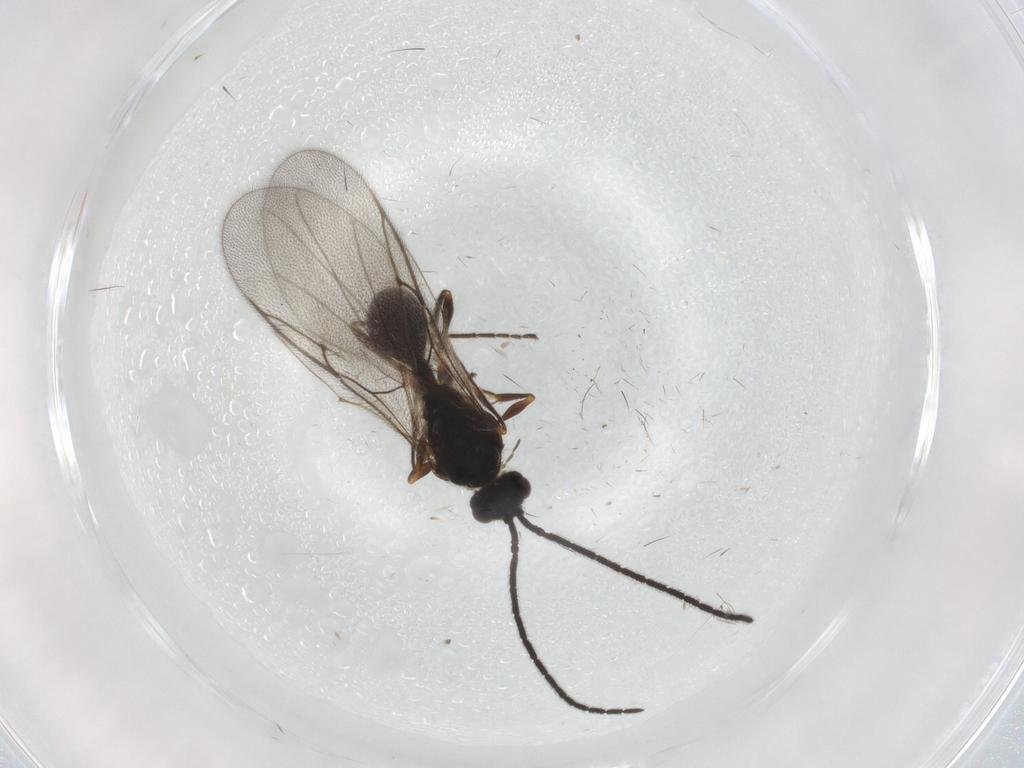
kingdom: Animalia
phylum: Arthropoda
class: Insecta
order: Hymenoptera
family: Diapriidae
